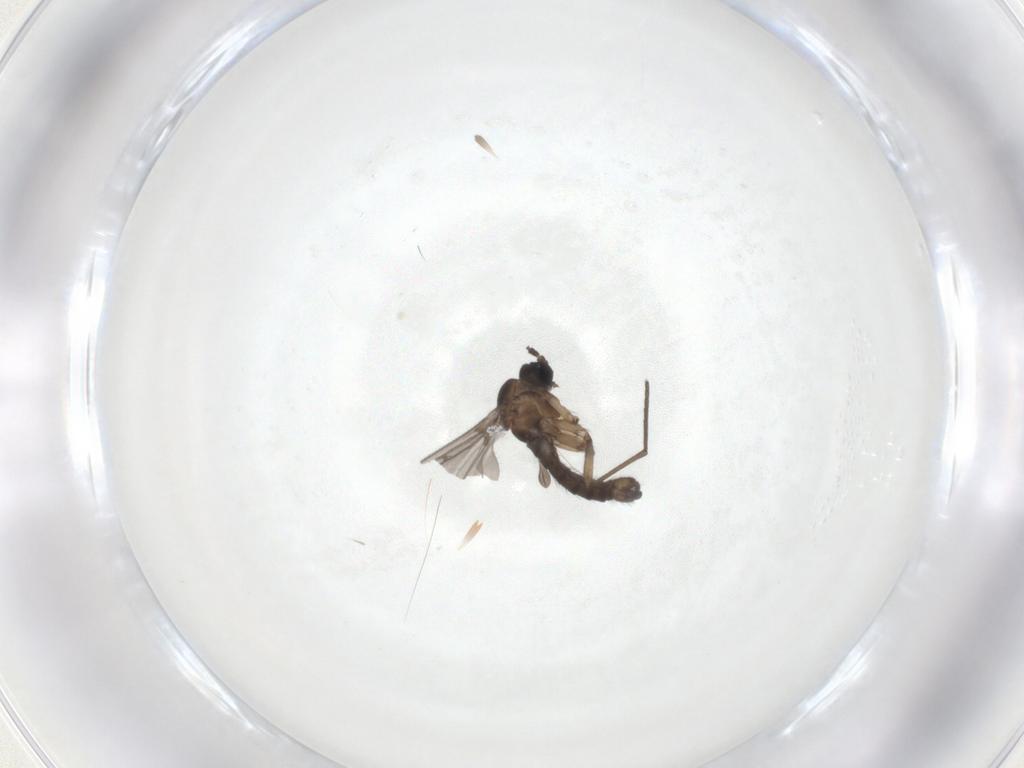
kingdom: Animalia
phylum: Arthropoda
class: Insecta
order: Diptera
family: Sciaridae
